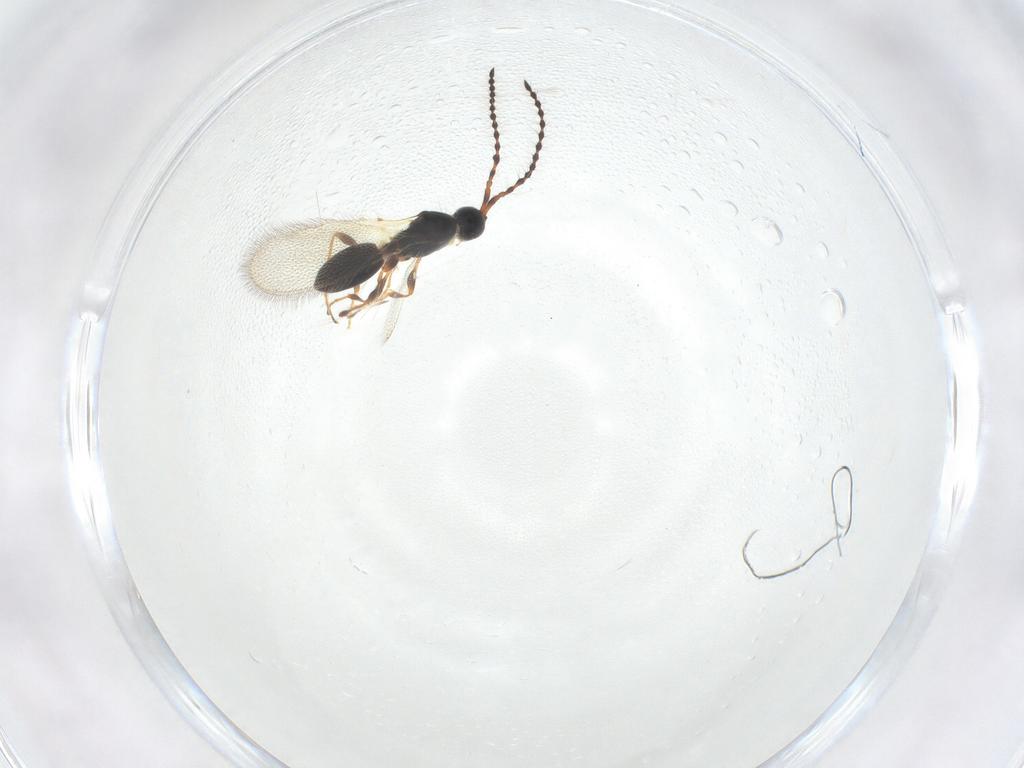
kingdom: Animalia
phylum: Arthropoda
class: Insecta
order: Hymenoptera
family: Diapriidae
